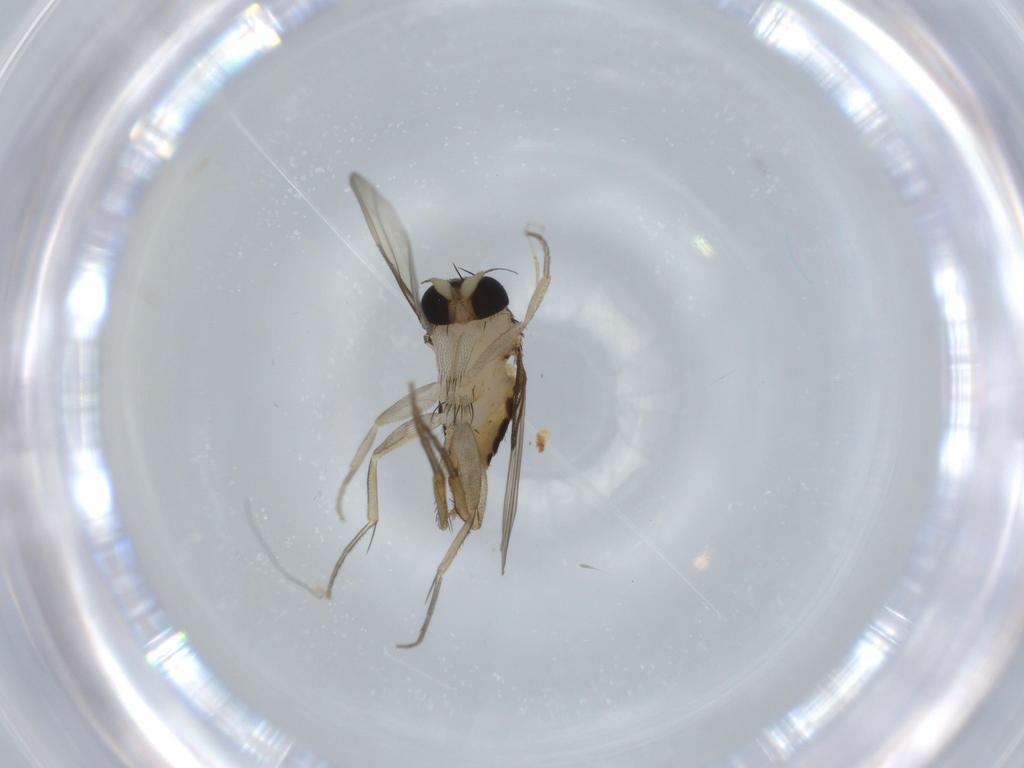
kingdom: Animalia
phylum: Arthropoda
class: Insecta
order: Diptera
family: Phoridae
